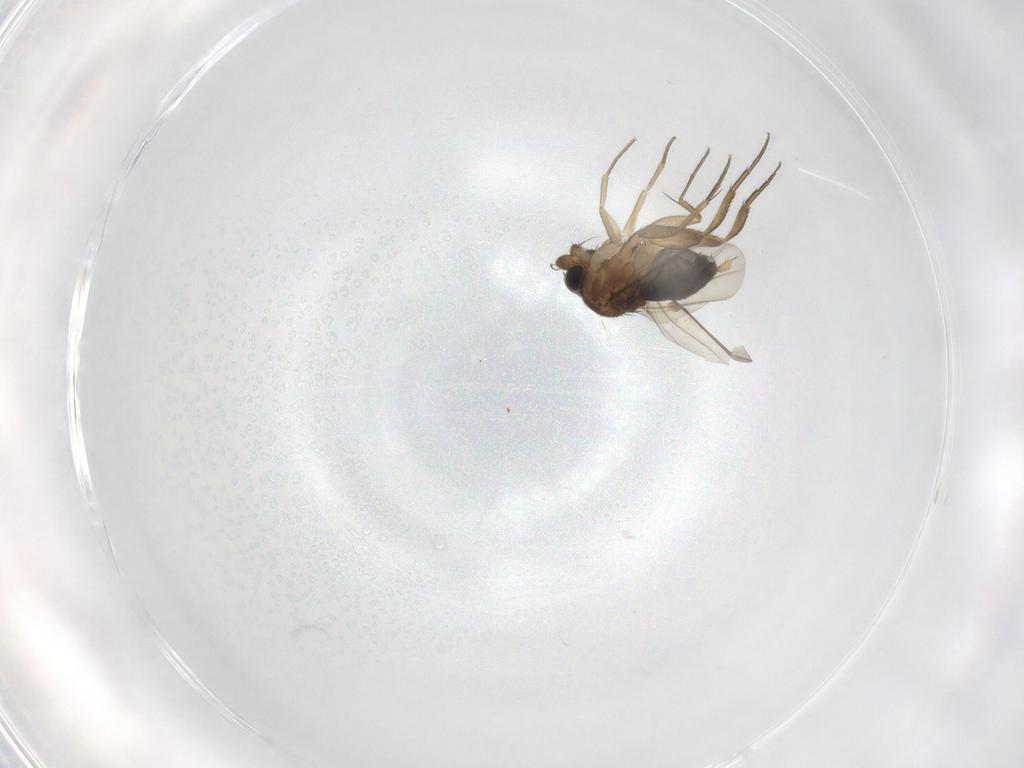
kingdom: Animalia
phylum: Arthropoda
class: Insecta
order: Diptera
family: Phoridae
